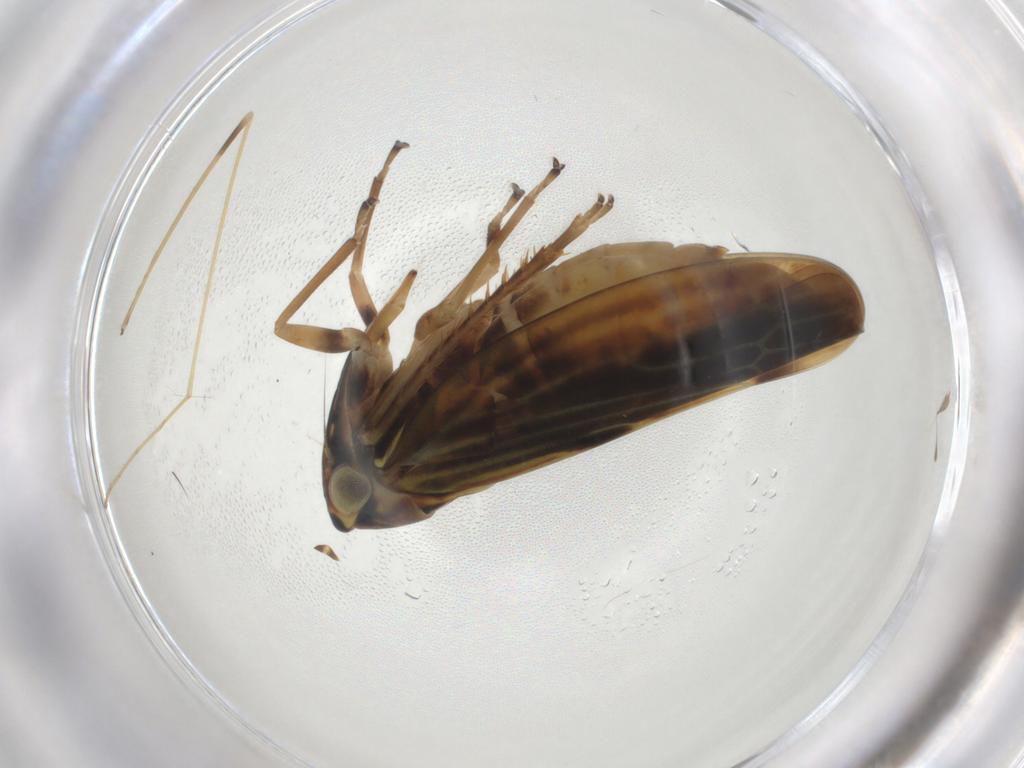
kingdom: Animalia
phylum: Arthropoda
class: Insecta
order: Hemiptera
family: Cicadellidae
